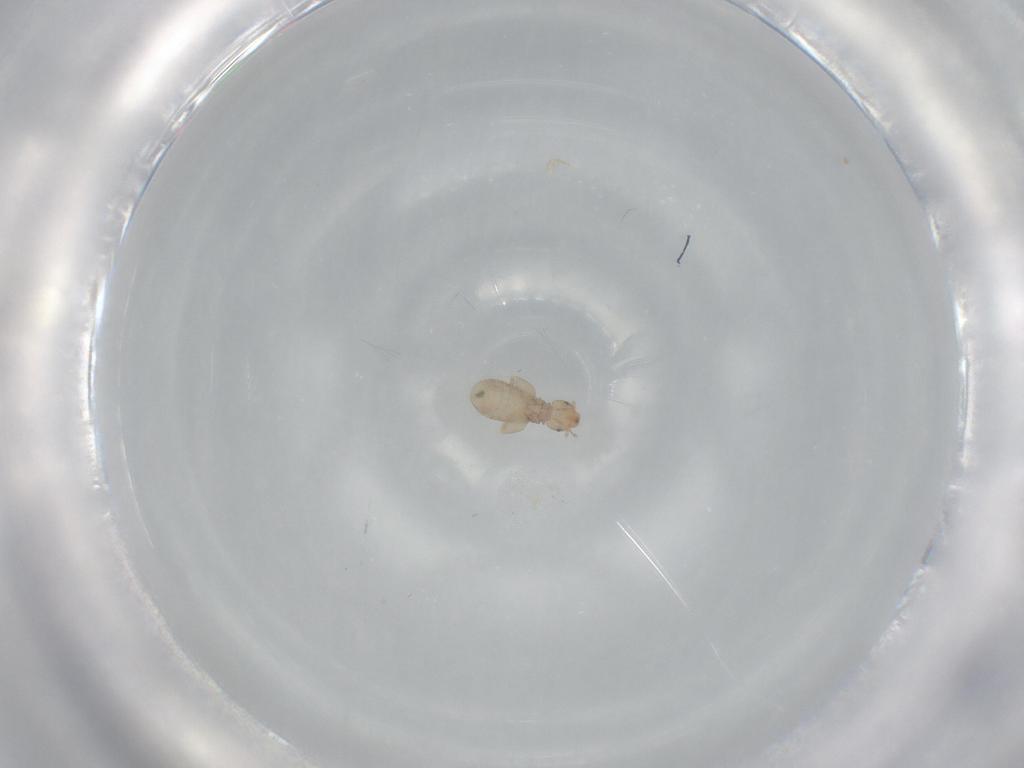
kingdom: Animalia
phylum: Arthropoda
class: Insecta
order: Psocodea
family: Liposcelididae
